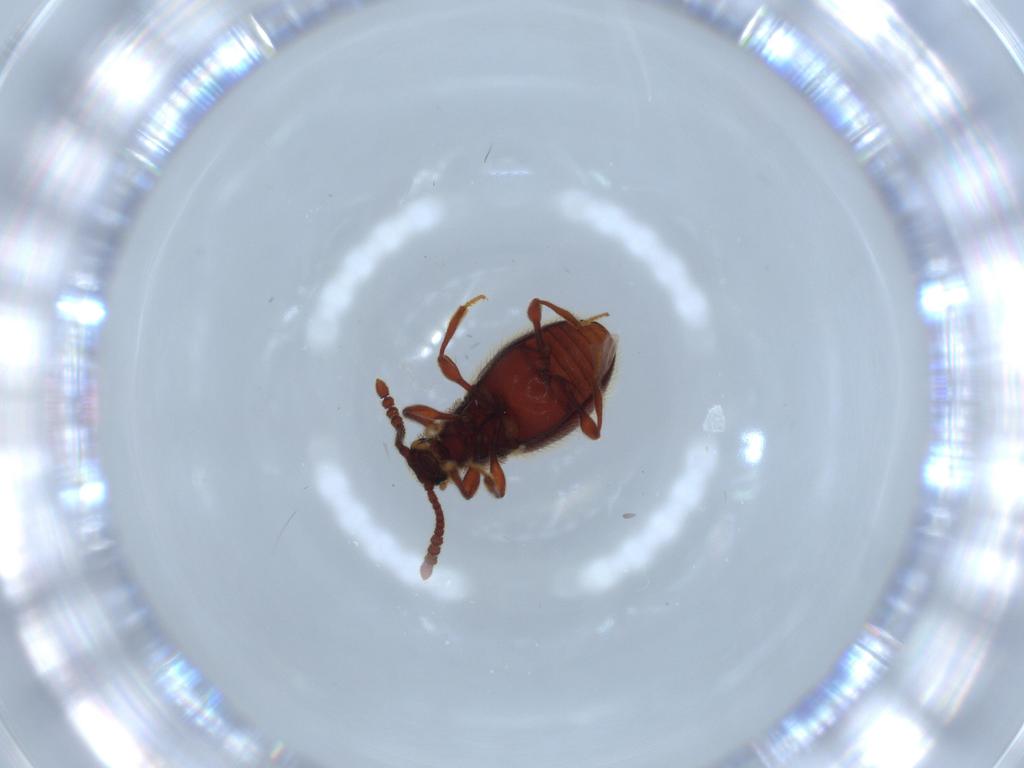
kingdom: Animalia
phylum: Arthropoda
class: Insecta
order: Coleoptera
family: Staphylinidae
